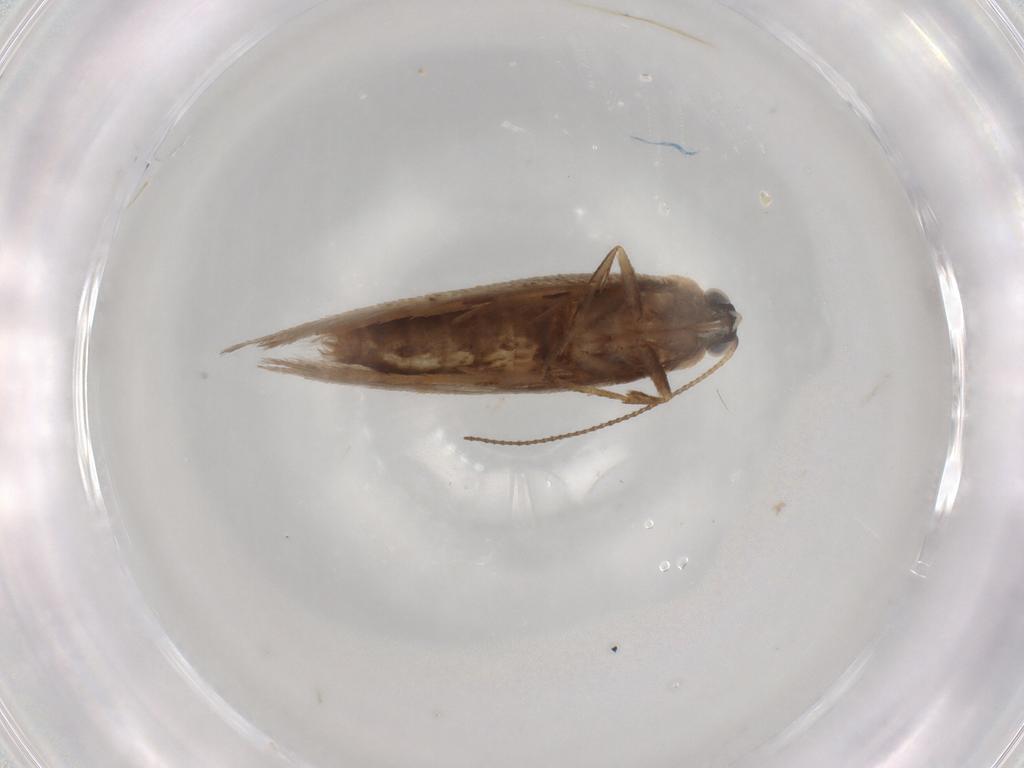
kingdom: Animalia
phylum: Arthropoda
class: Insecta
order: Lepidoptera
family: Nepticulidae
